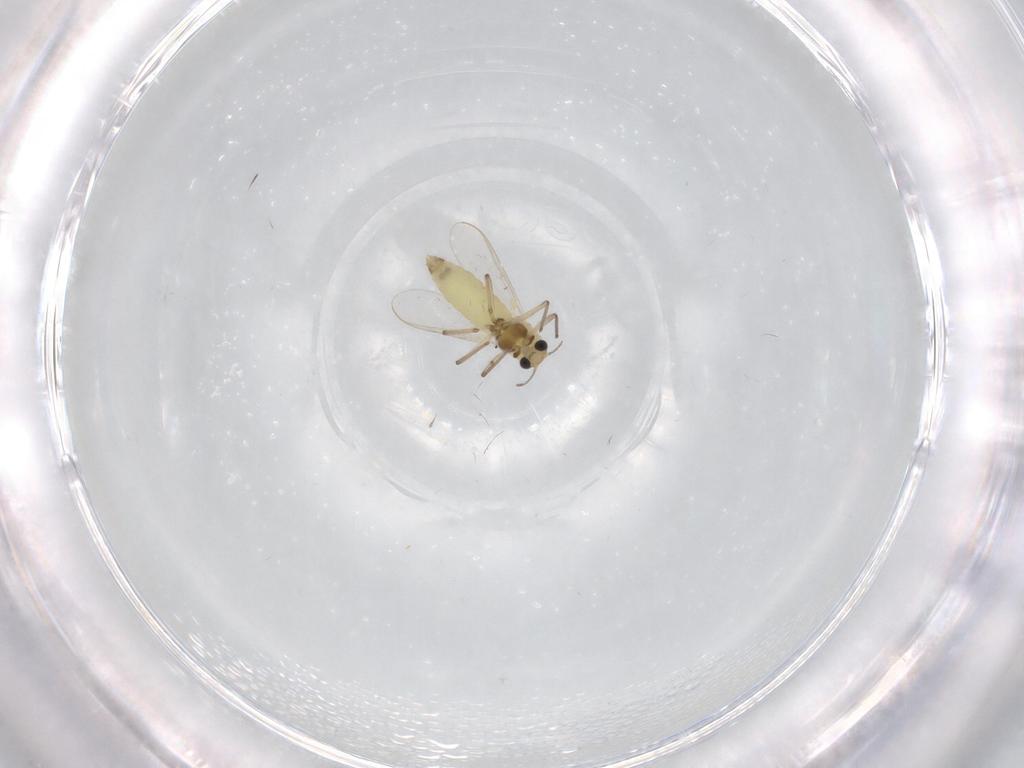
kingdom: Animalia
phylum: Arthropoda
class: Insecta
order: Diptera
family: Chironomidae
